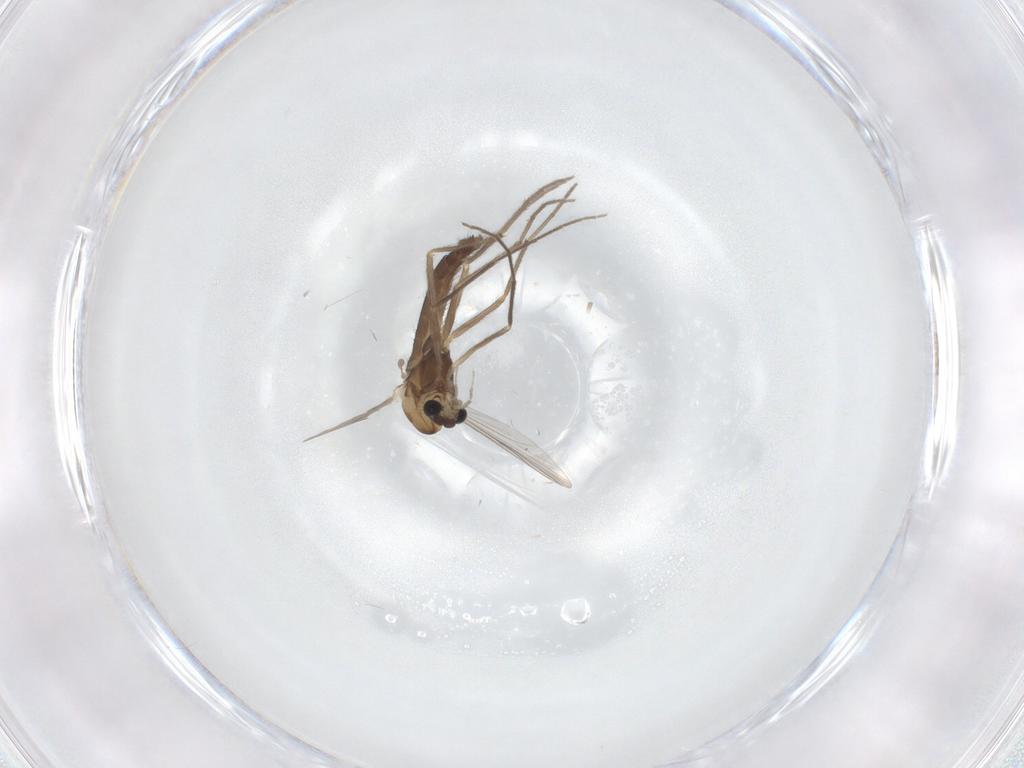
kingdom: Animalia
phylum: Arthropoda
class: Insecta
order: Diptera
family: Chironomidae
